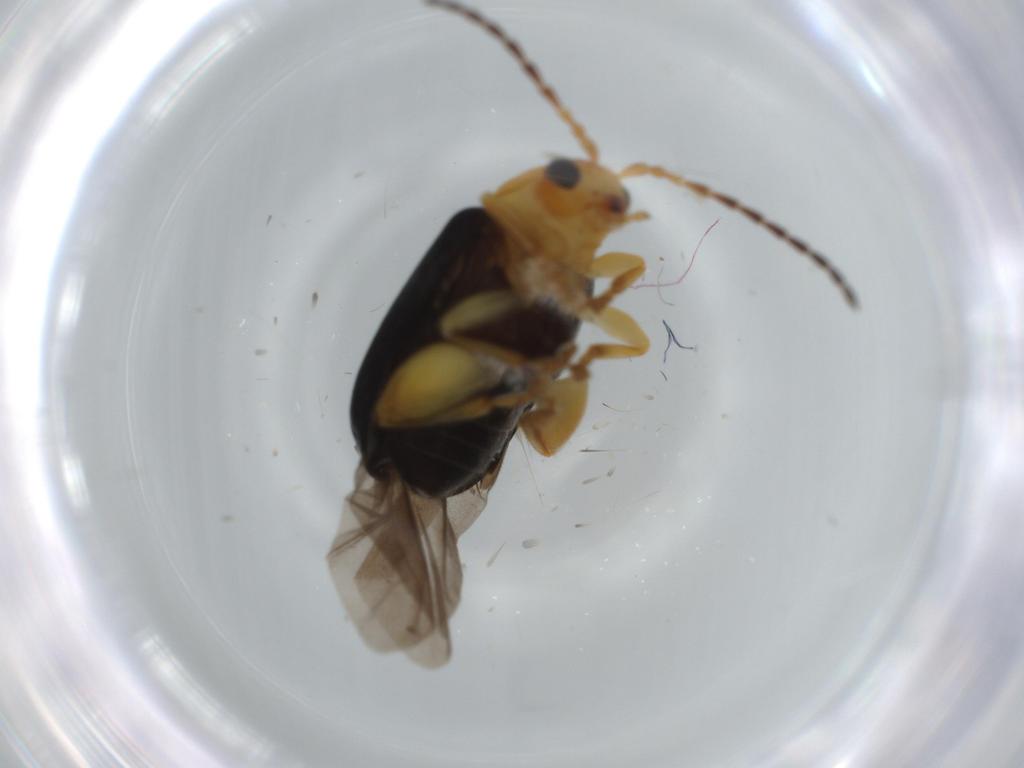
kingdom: Animalia
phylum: Arthropoda
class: Insecta
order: Coleoptera
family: Chrysomelidae
